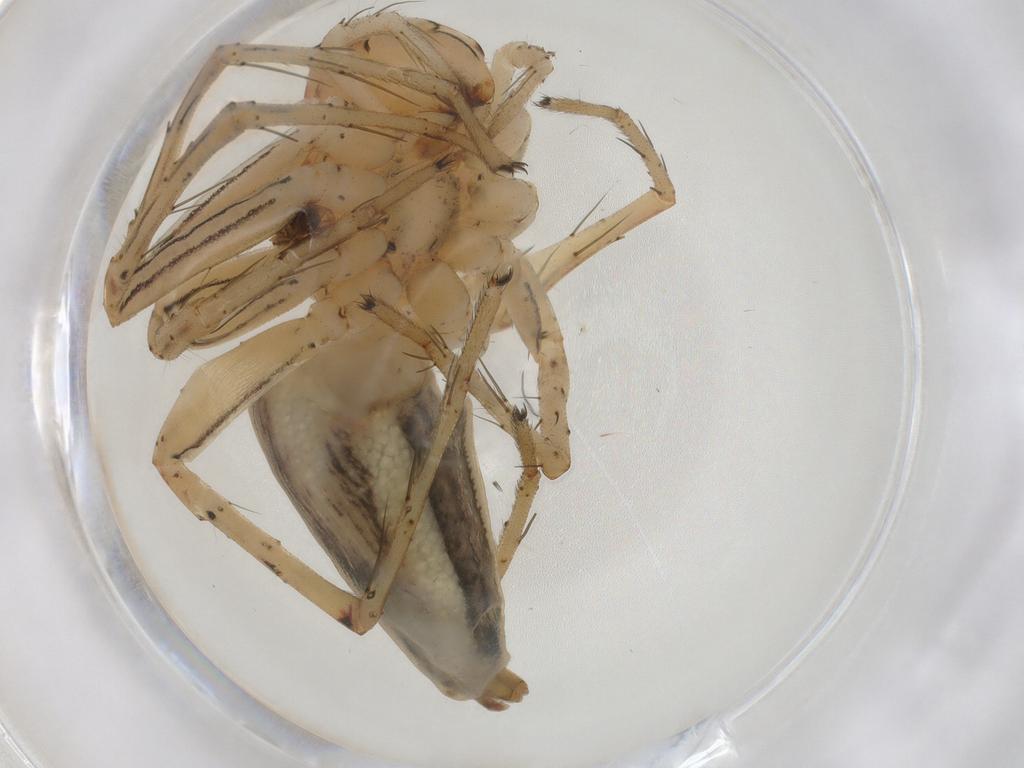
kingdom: Animalia
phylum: Arthropoda
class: Arachnida
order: Araneae
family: Oxyopidae
